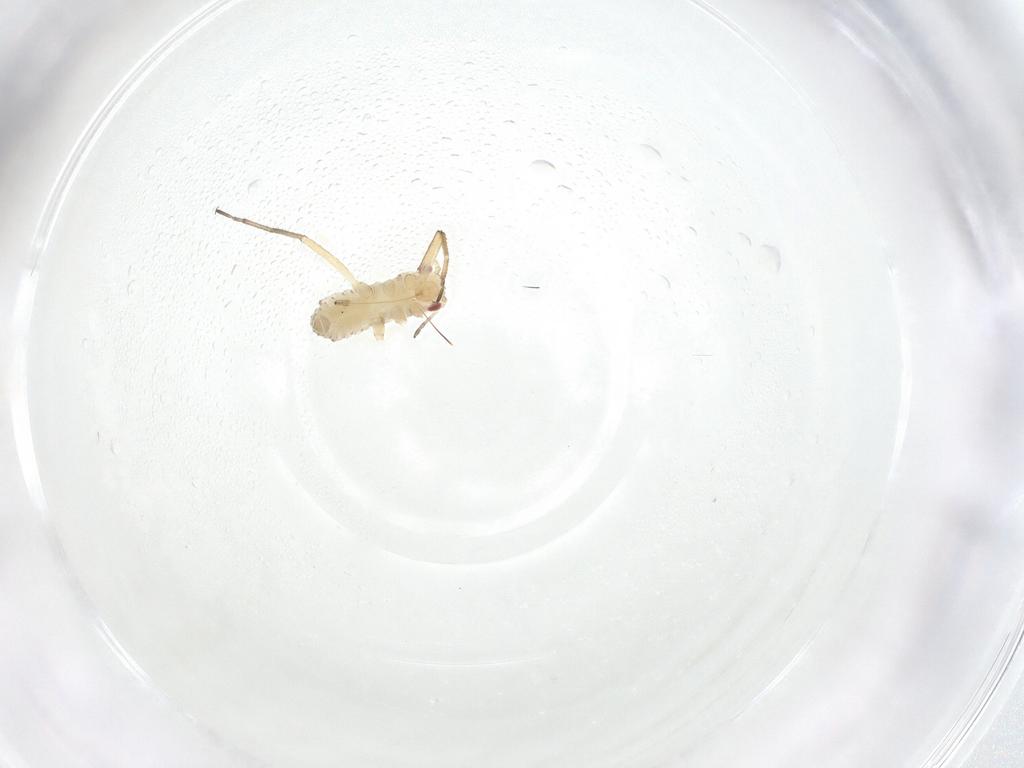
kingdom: Animalia
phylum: Arthropoda
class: Insecta
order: Hemiptera
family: Lachnidae
